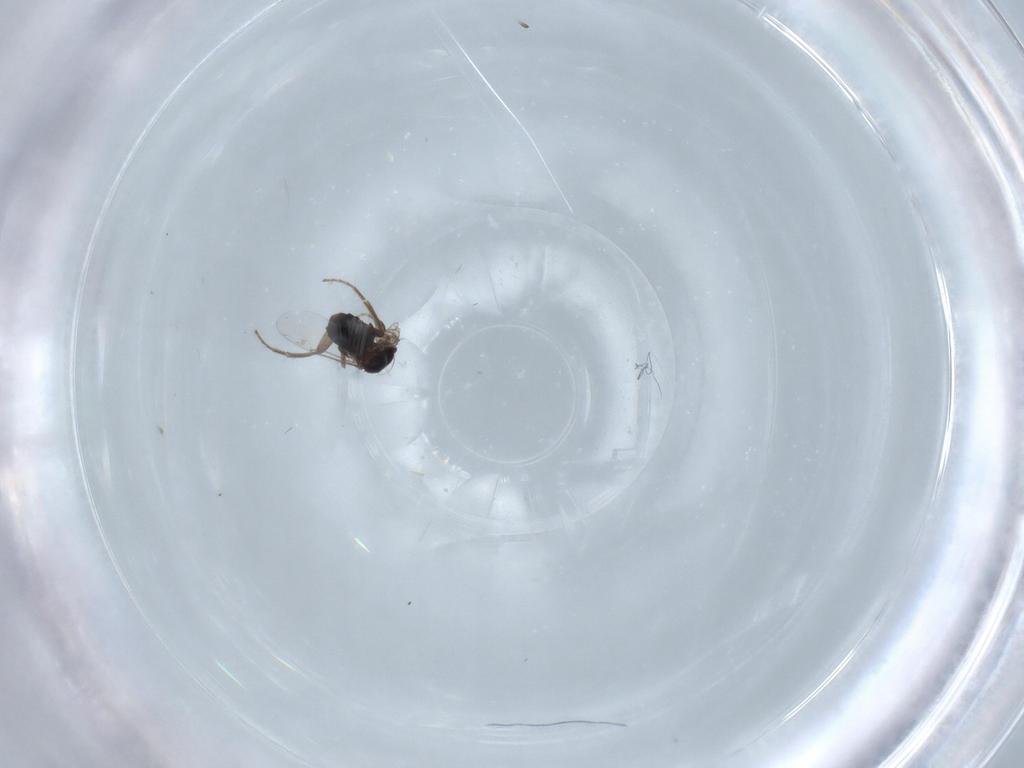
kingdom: Animalia
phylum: Arthropoda
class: Insecta
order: Diptera
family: Phoridae
